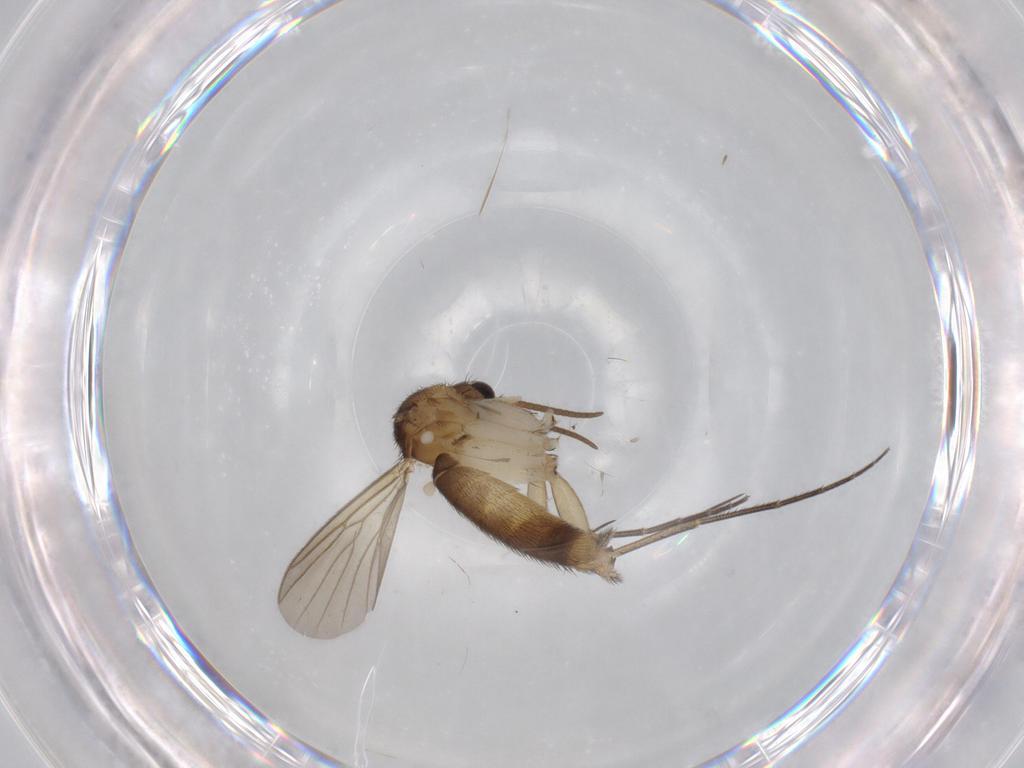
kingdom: Animalia
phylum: Arthropoda
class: Insecta
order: Diptera
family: Mycetophilidae
